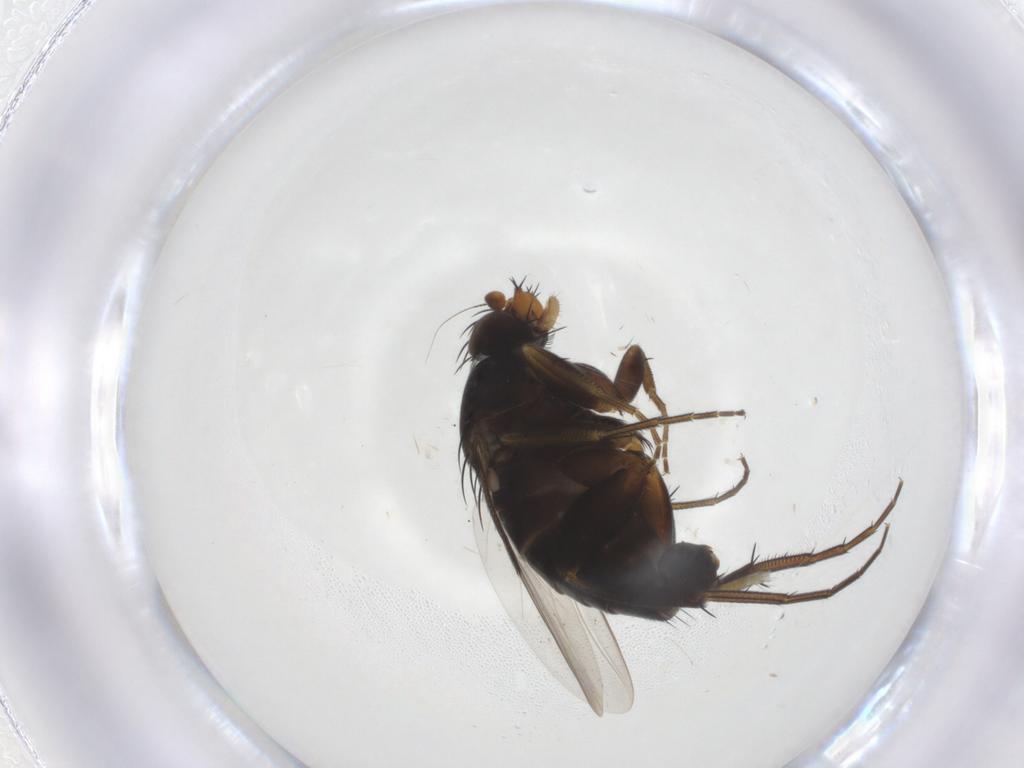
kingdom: Animalia
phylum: Arthropoda
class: Insecta
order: Diptera
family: Phoridae
